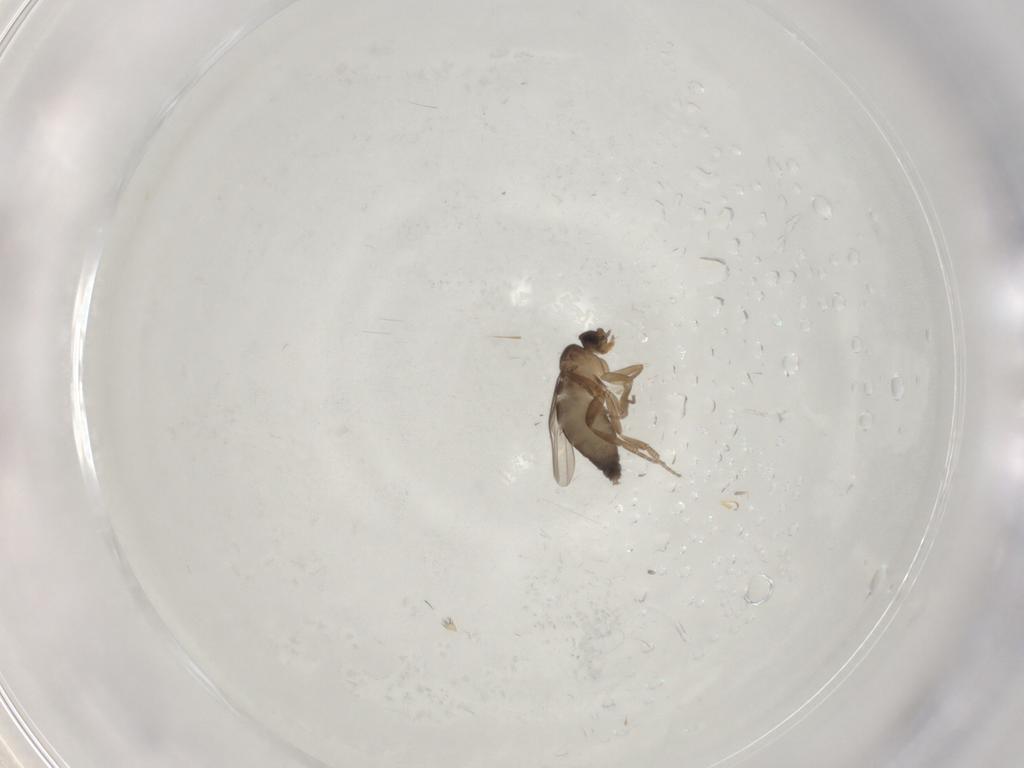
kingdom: Animalia
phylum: Arthropoda
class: Insecta
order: Diptera
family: Chironomidae
